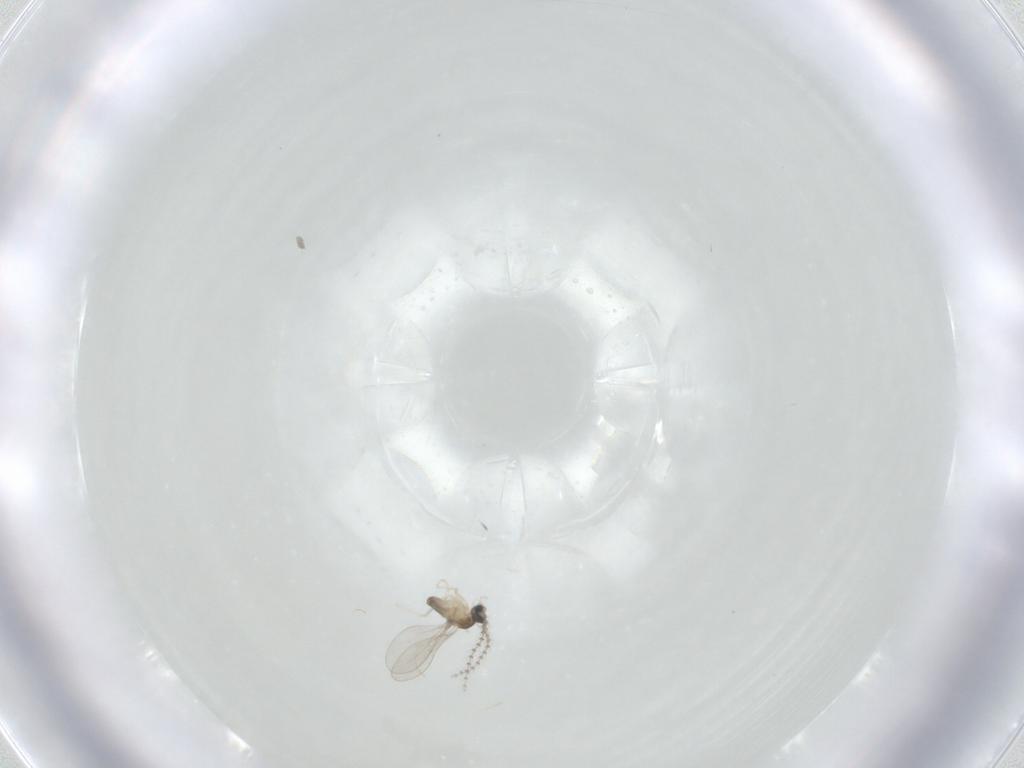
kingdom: Animalia
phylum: Arthropoda
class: Insecta
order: Diptera
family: Cecidomyiidae
